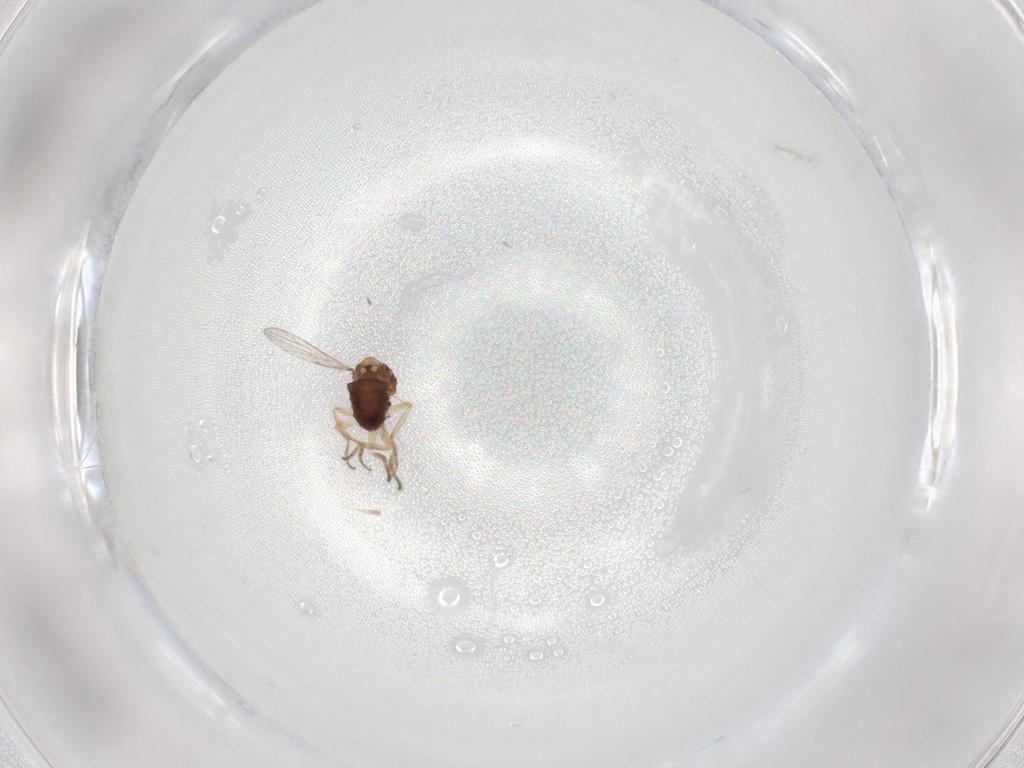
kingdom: Animalia
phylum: Arthropoda
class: Insecta
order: Diptera
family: Ceratopogonidae
